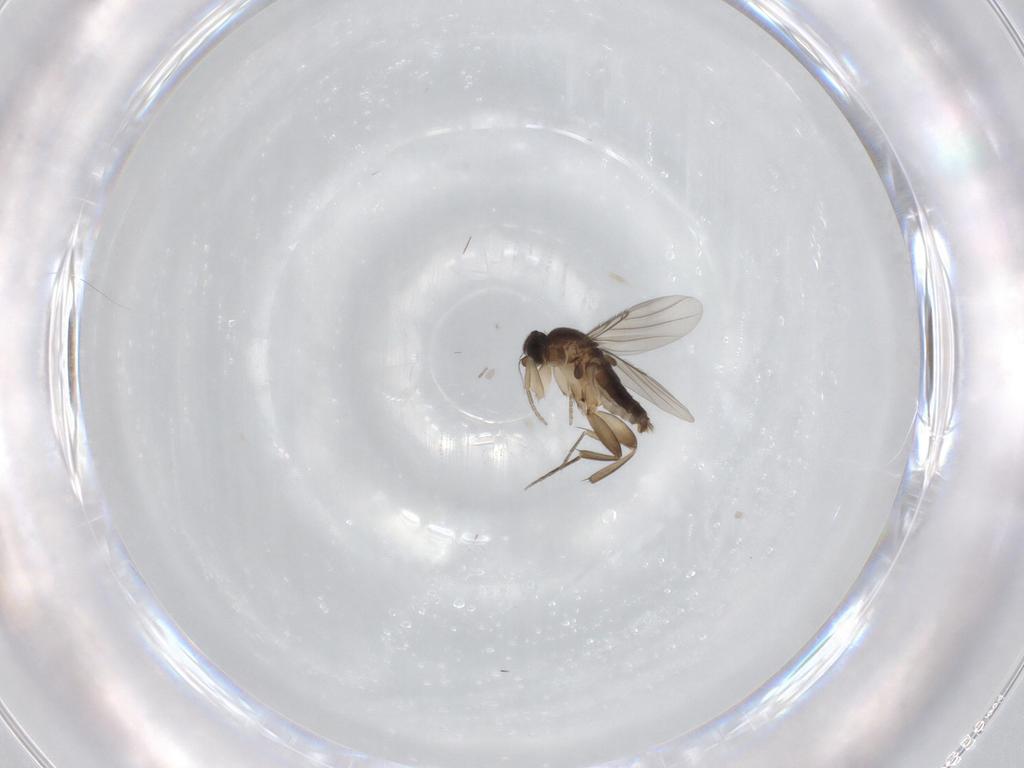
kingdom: Animalia
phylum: Arthropoda
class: Insecta
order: Diptera
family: Phoridae
